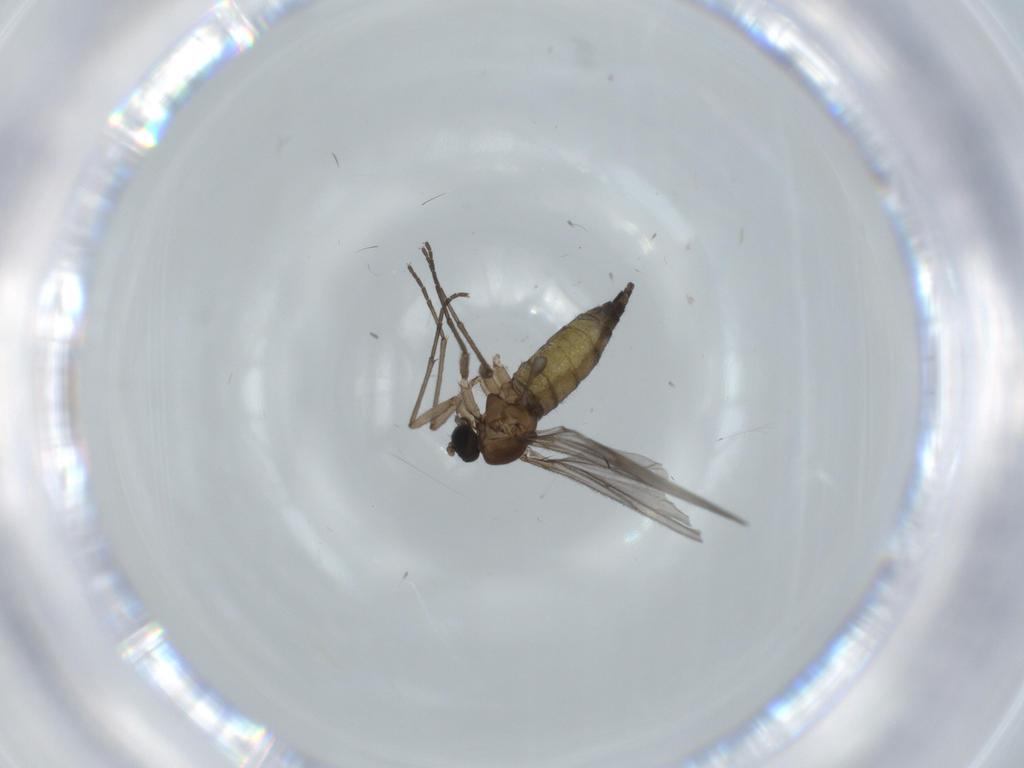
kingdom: Animalia
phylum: Arthropoda
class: Insecta
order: Diptera
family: Sciaridae
